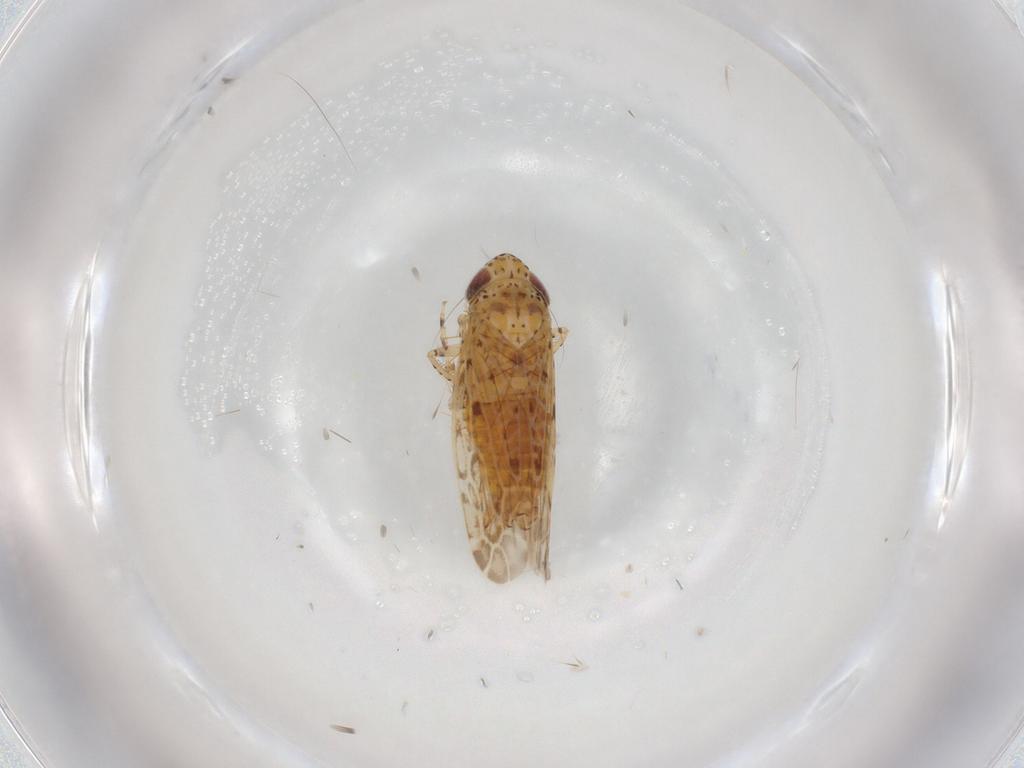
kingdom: Animalia
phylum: Arthropoda
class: Insecta
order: Hemiptera
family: Cicadellidae
